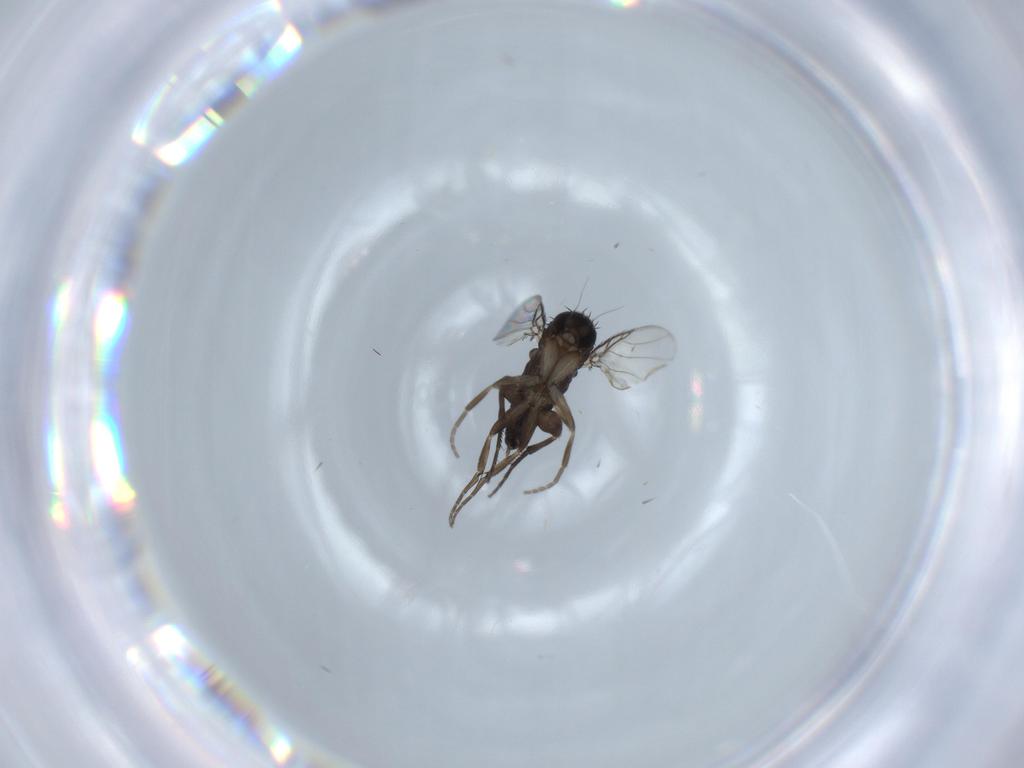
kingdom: Animalia
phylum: Arthropoda
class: Insecta
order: Diptera
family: Phoridae
